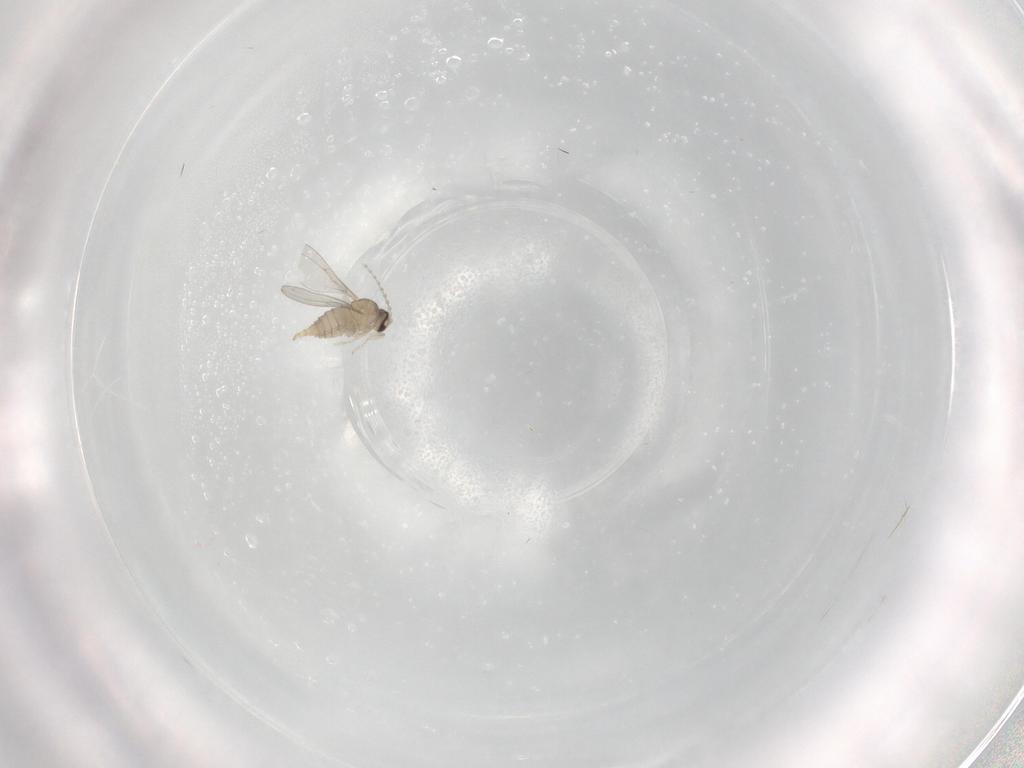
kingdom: Animalia
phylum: Arthropoda
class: Insecta
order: Diptera
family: Cecidomyiidae
